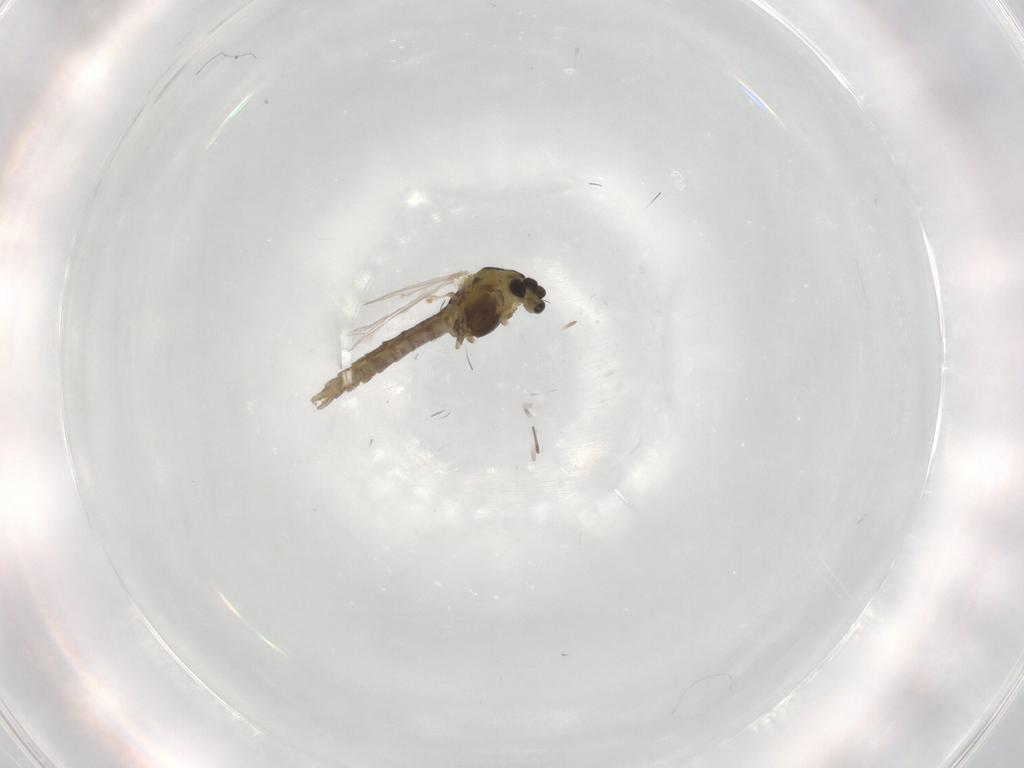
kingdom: Animalia
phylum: Arthropoda
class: Insecta
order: Diptera
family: Chironomidae
